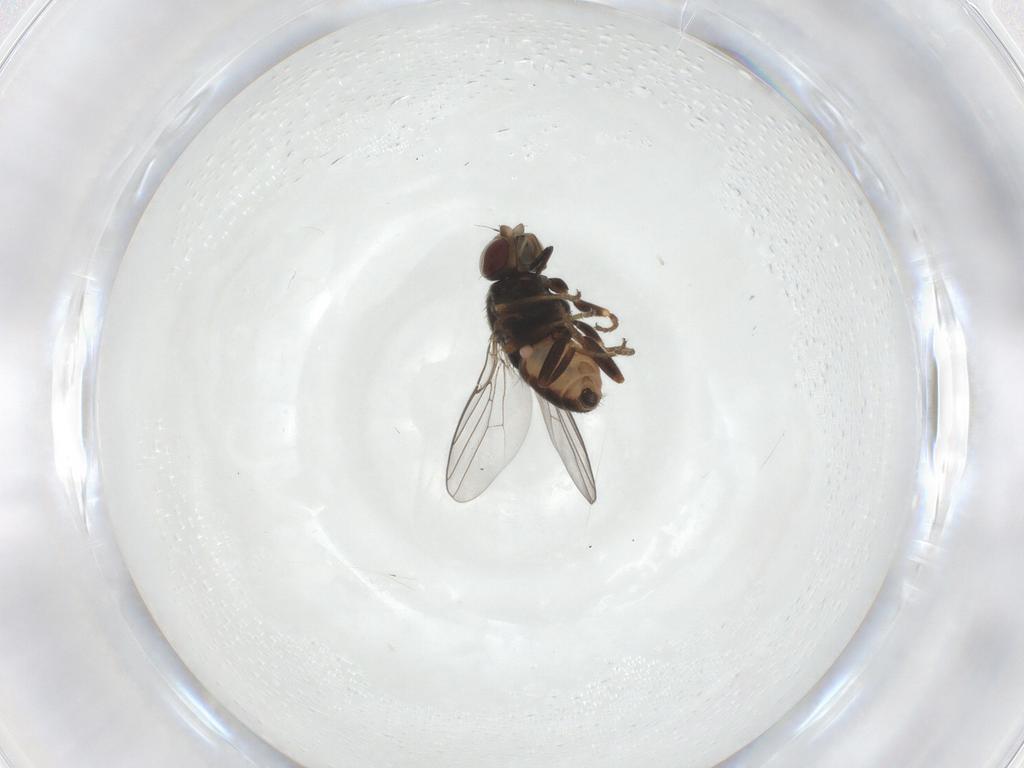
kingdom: Animalia
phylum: Arthropoda
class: Insecta
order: Diptera
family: Chloropidae
